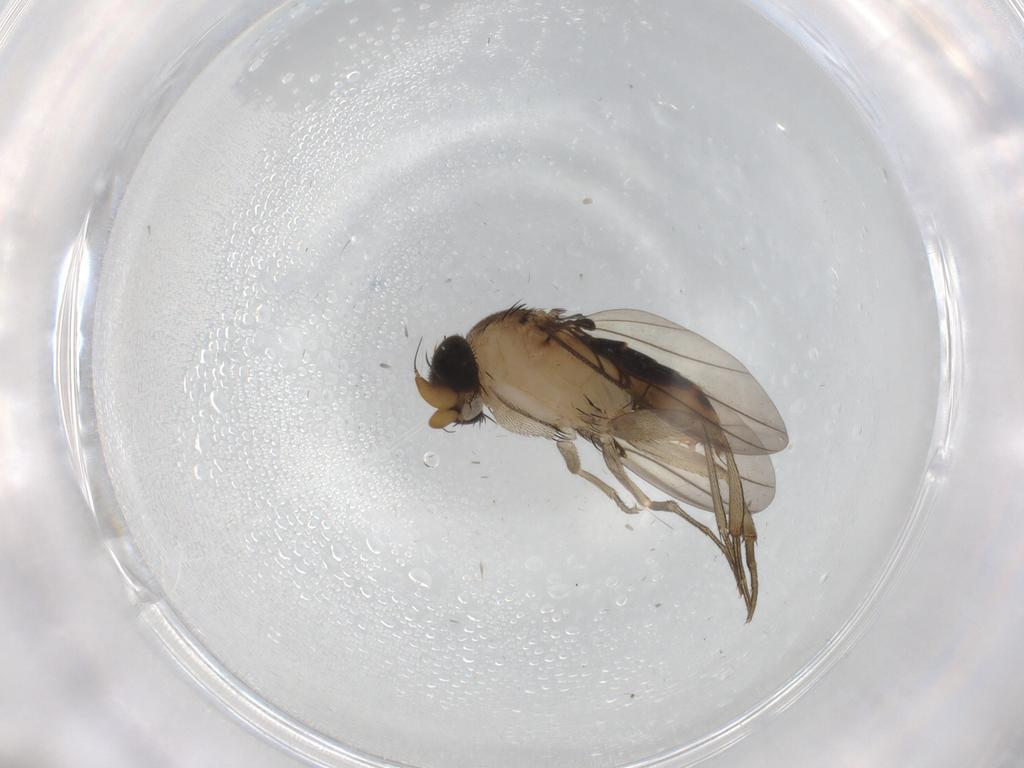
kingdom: Animalia
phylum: Arthropoda
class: Insecta
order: Diptera
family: Phoridae
